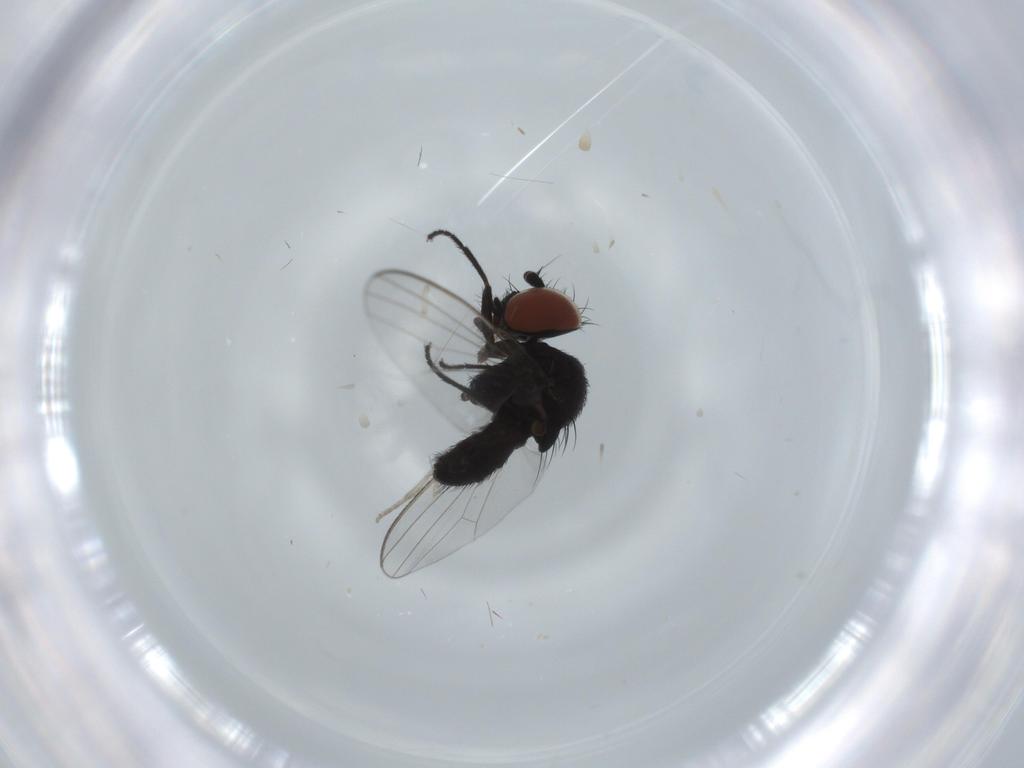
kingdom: Animalia
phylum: Arthropoda
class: Insecta
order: Diptera
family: Milichiidae
